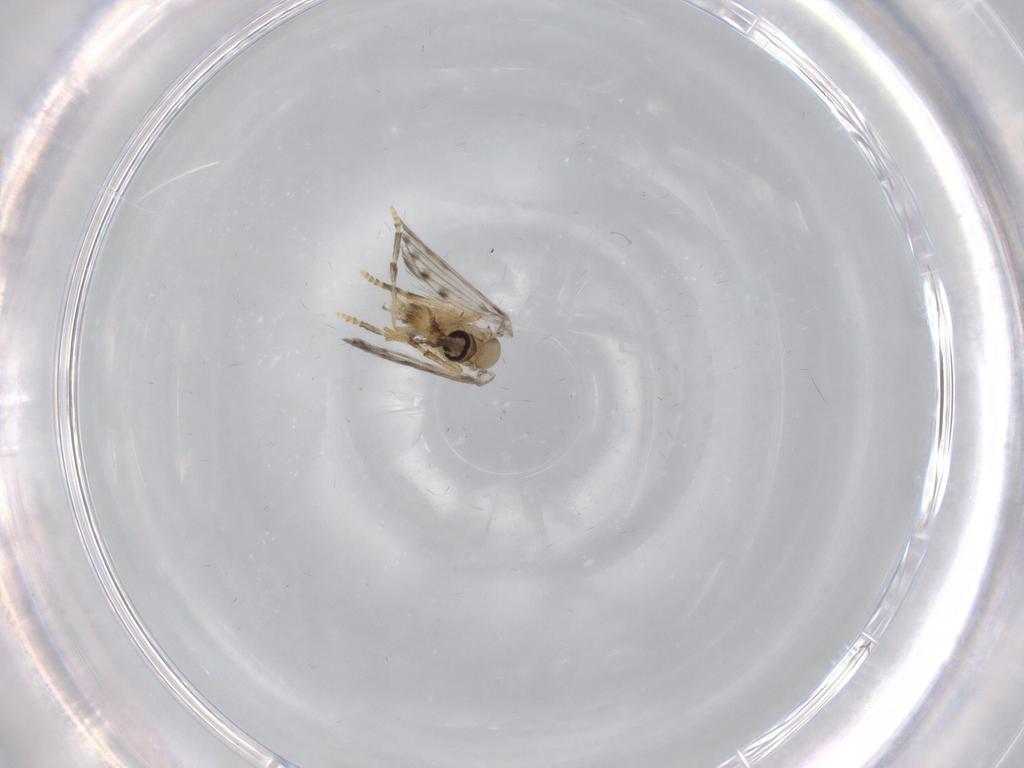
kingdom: Animalia
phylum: Arthropoda
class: Insecta
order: Diptera
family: Psychodidae
